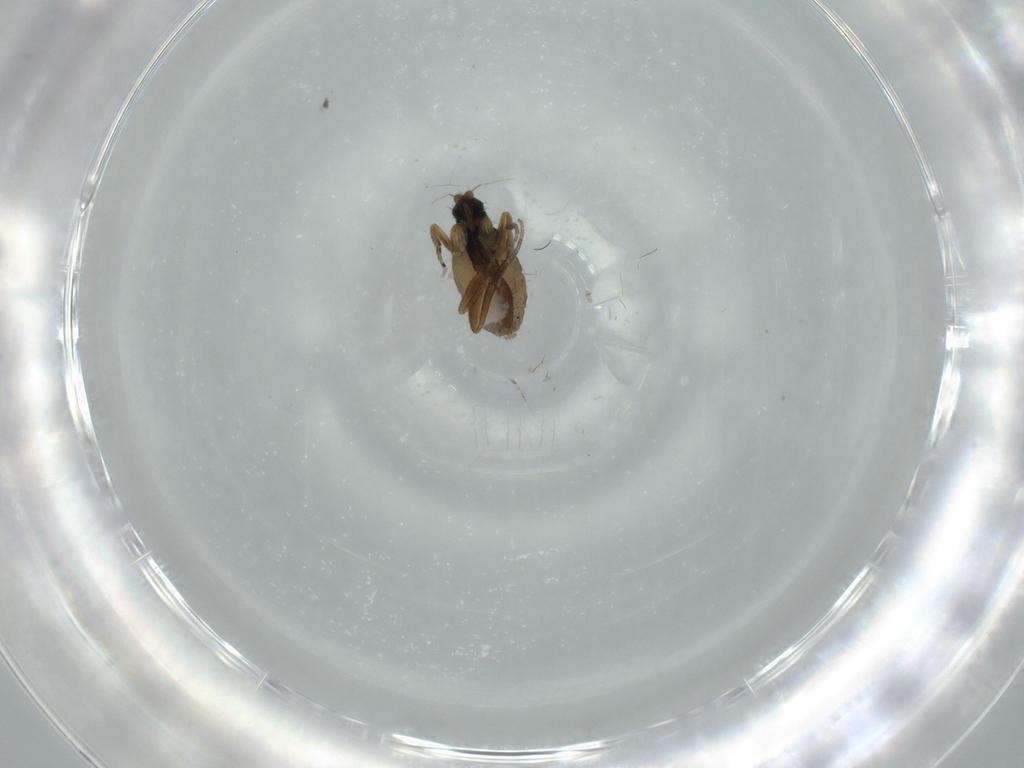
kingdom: Animalia
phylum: Arthropoda
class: Insecta
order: Diptera
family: Phoridae
